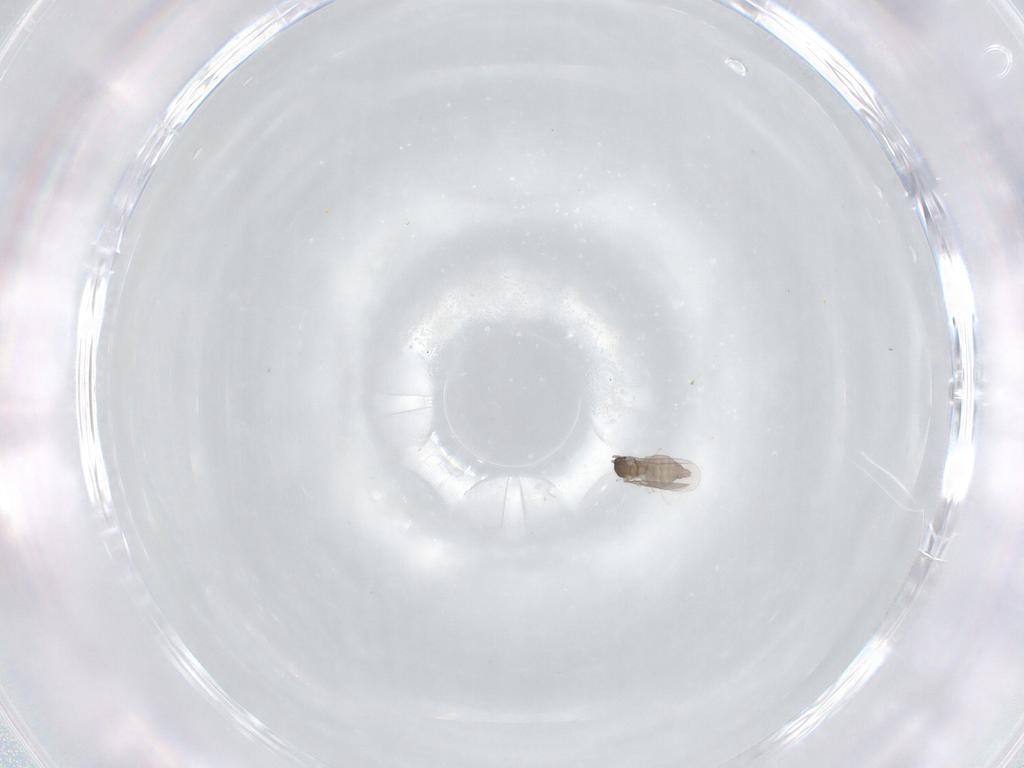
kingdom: Animalia
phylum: Arthropoda
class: Insecta
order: Diptera
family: Cecidomyiidae
